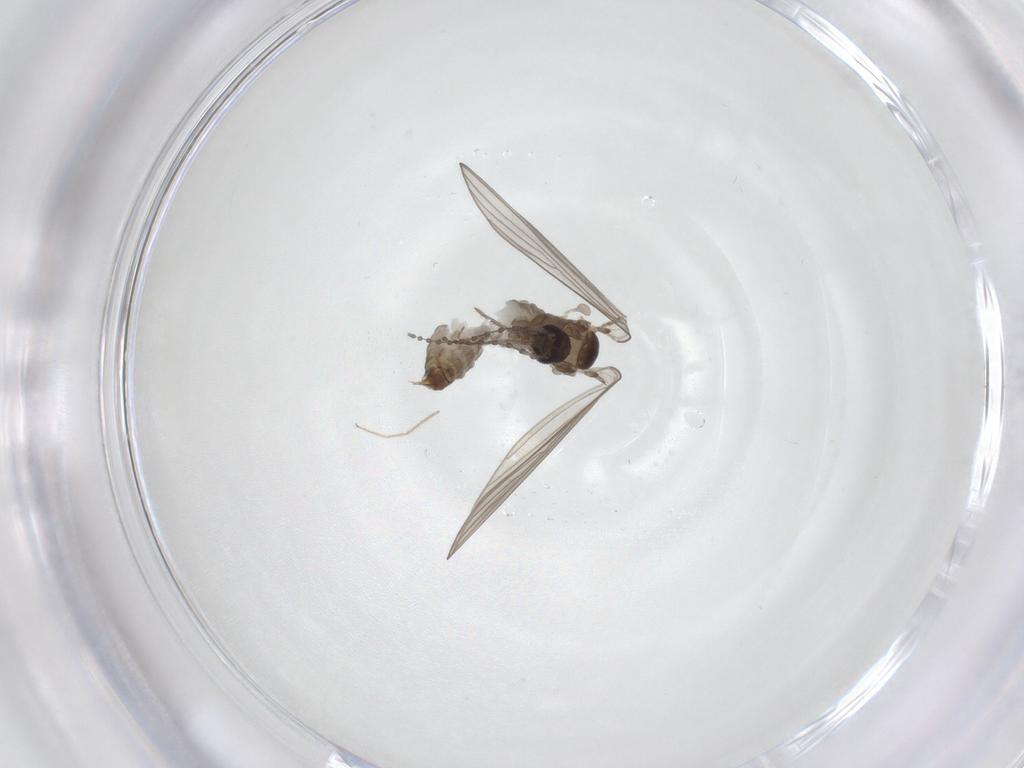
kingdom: Animalia
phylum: Arthropoda
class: Insecta
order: Diptera
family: Psychodidae
